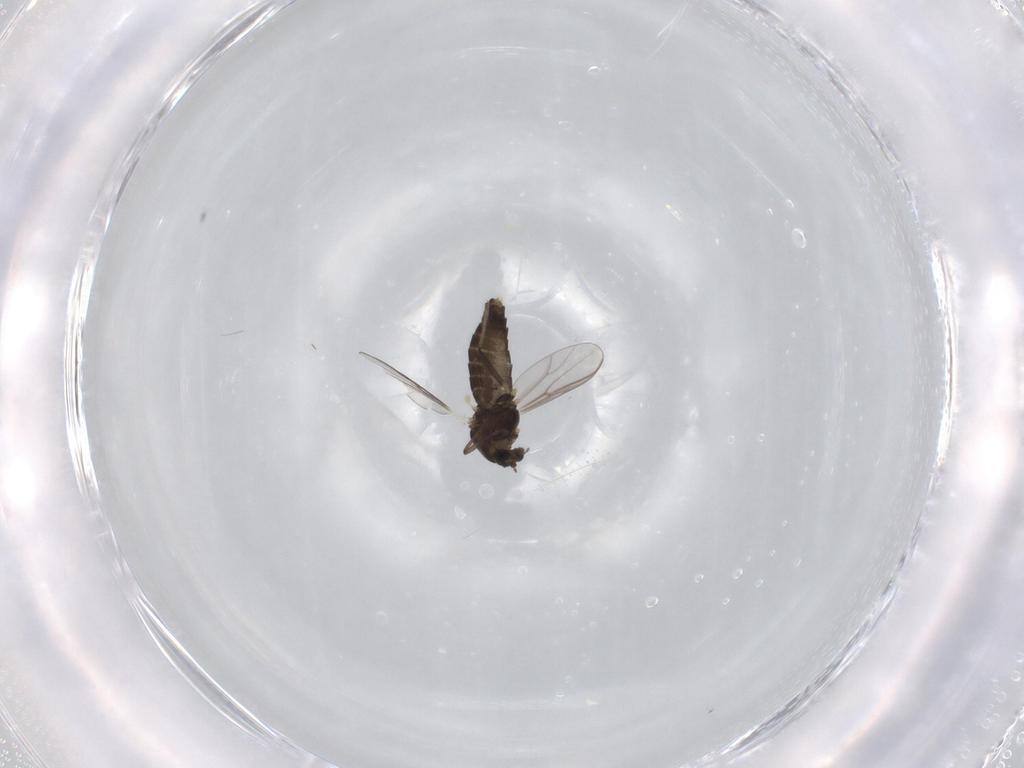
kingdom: Animalia
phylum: Arthropoda
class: Insecta
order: Diptera
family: Chironomidae
